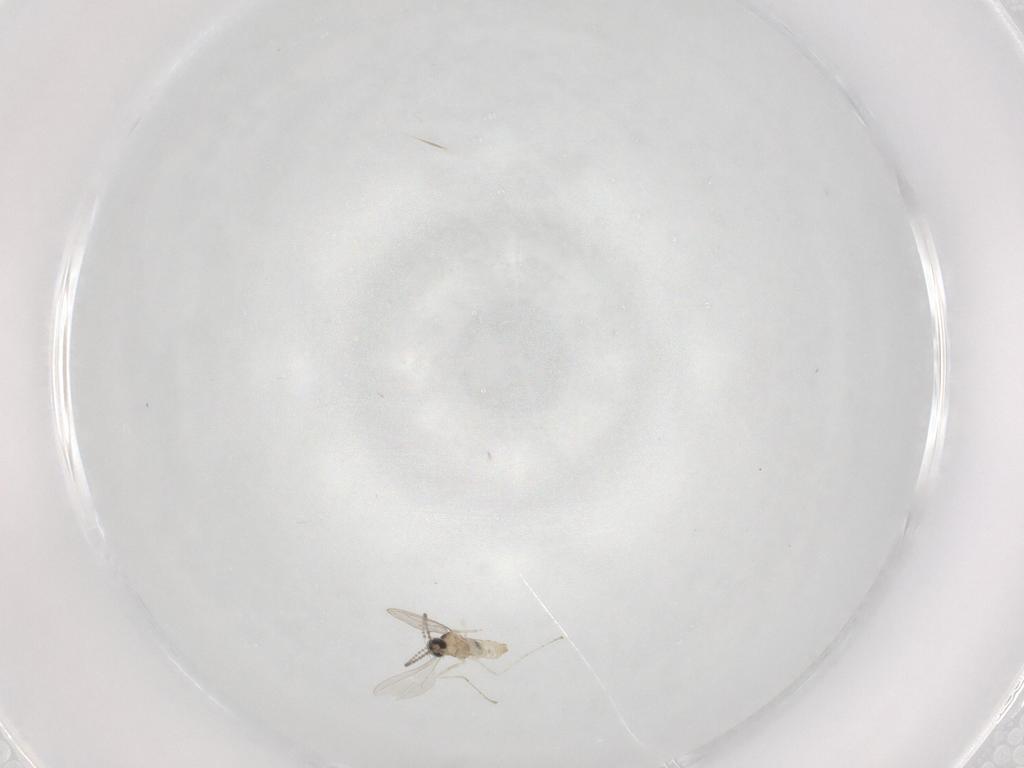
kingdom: Animalia
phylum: Arthropoda
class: Insecta
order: Diptera
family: Cecidomyiidae
